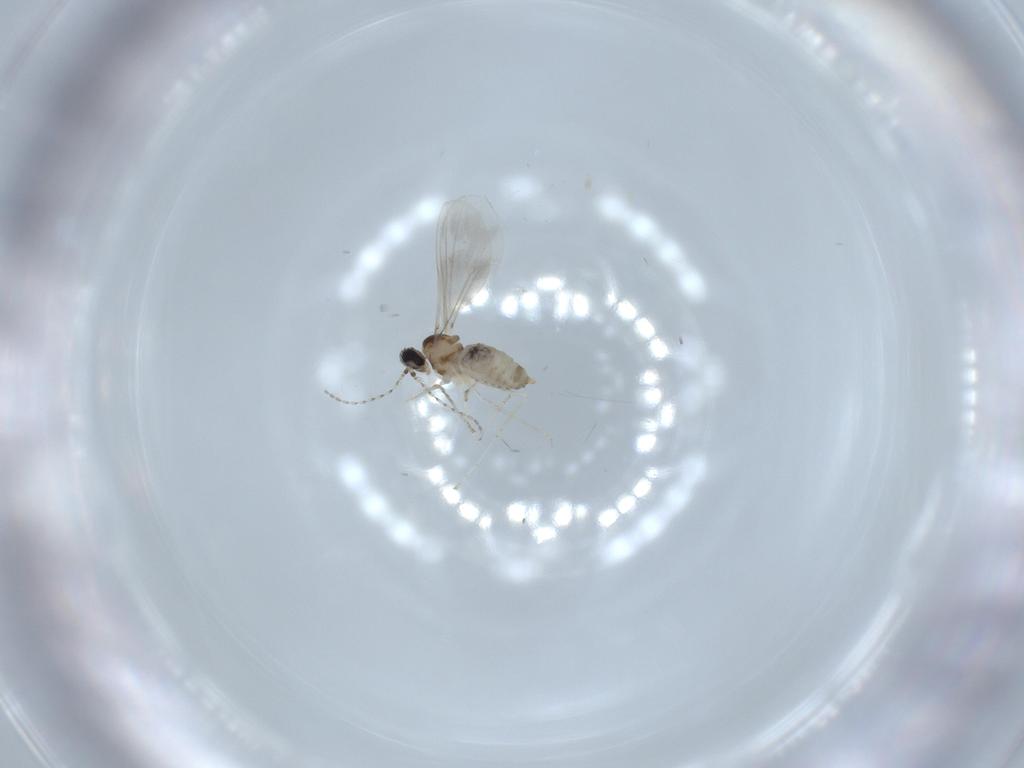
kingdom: Animalia
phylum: Arthropoda
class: Insecta
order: Diptera
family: Cecidomyiidae
